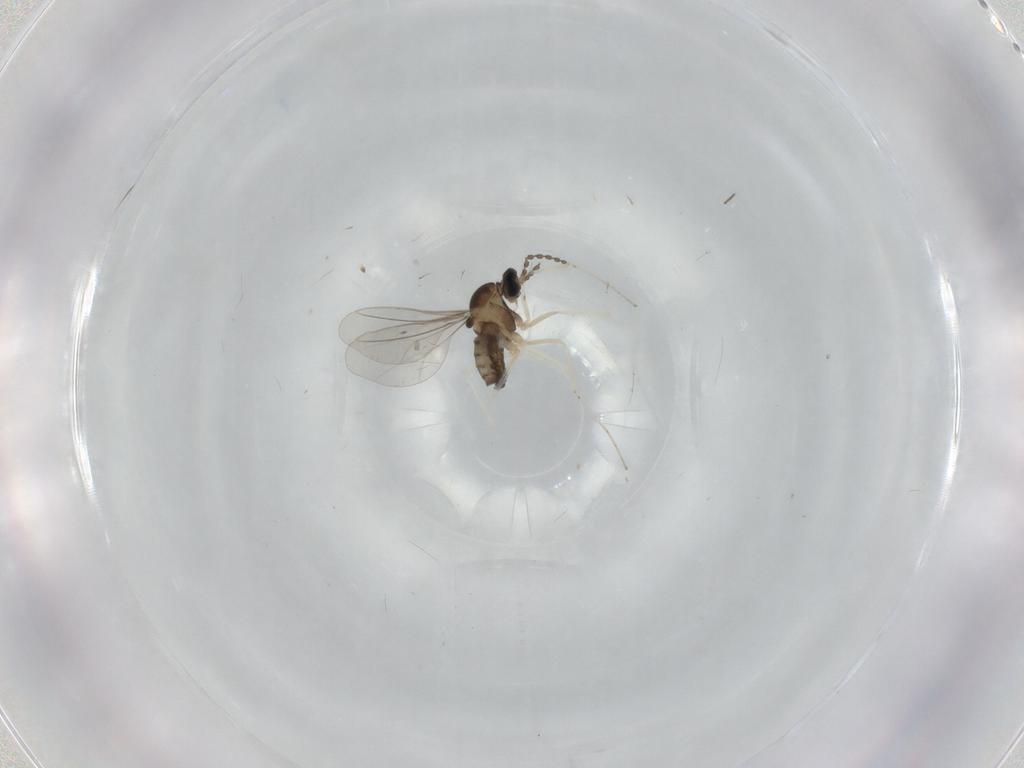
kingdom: Animalia
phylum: Arthropoda
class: Insecta
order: Diptera
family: Cecidomyiidae
